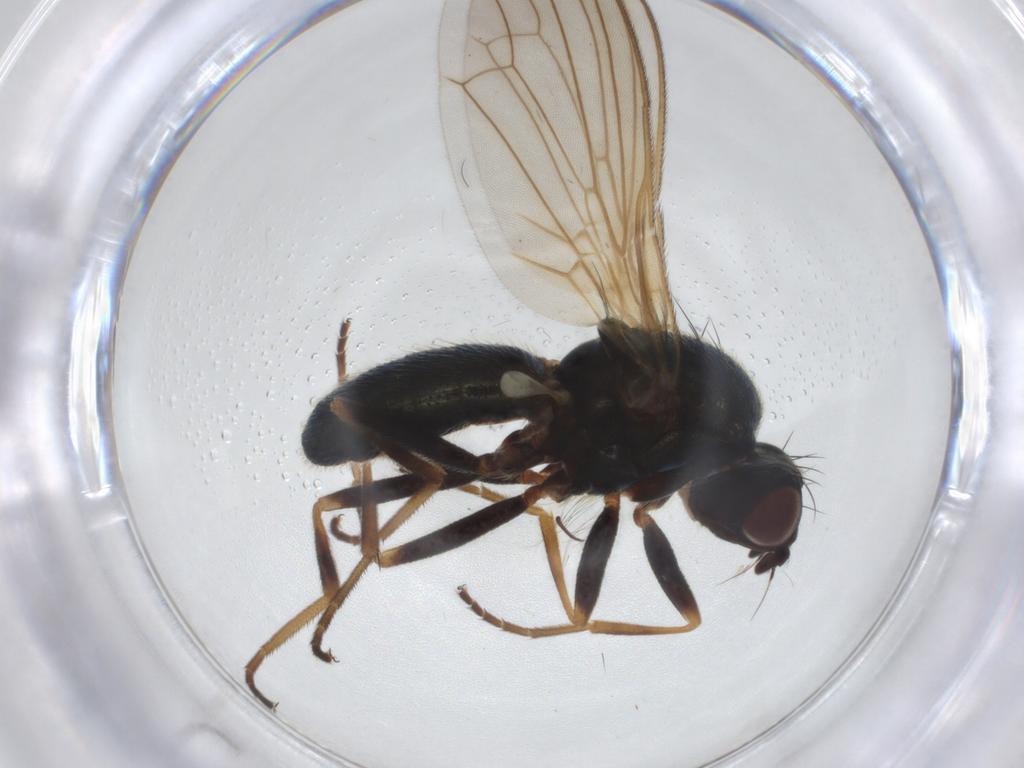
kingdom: Animalia
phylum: Arthropoda
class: Insecta
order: Diptera
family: Psilidae
